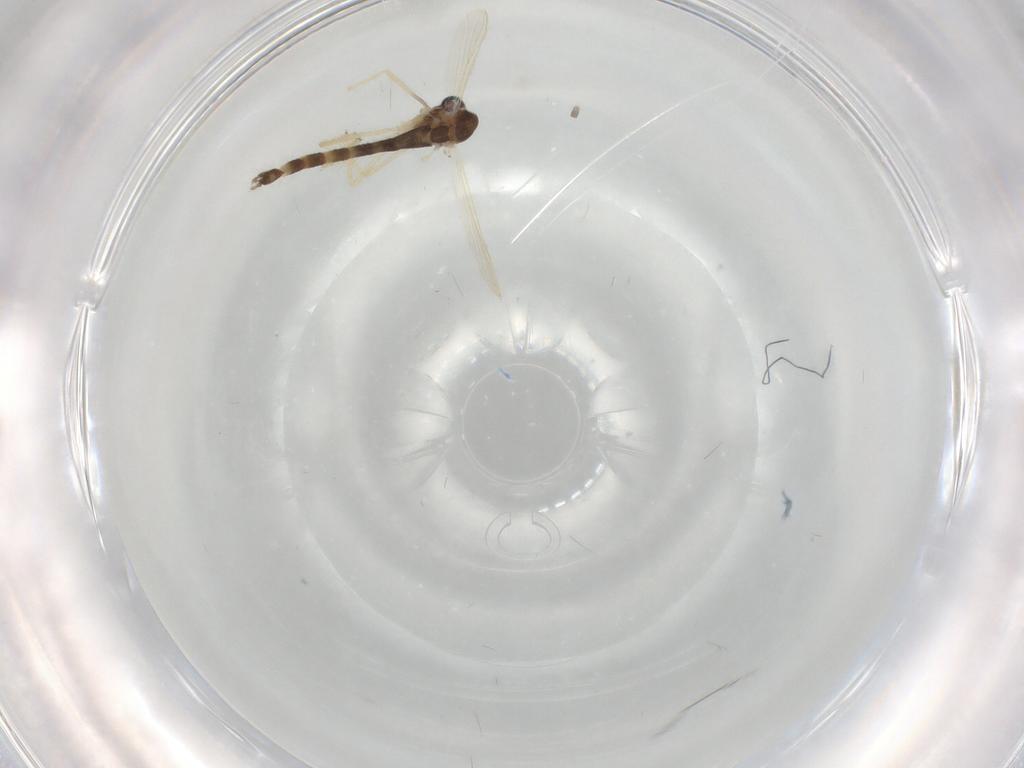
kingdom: Animalia
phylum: Arthropoda
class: Insecta
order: Diptera
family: Chironomidae
